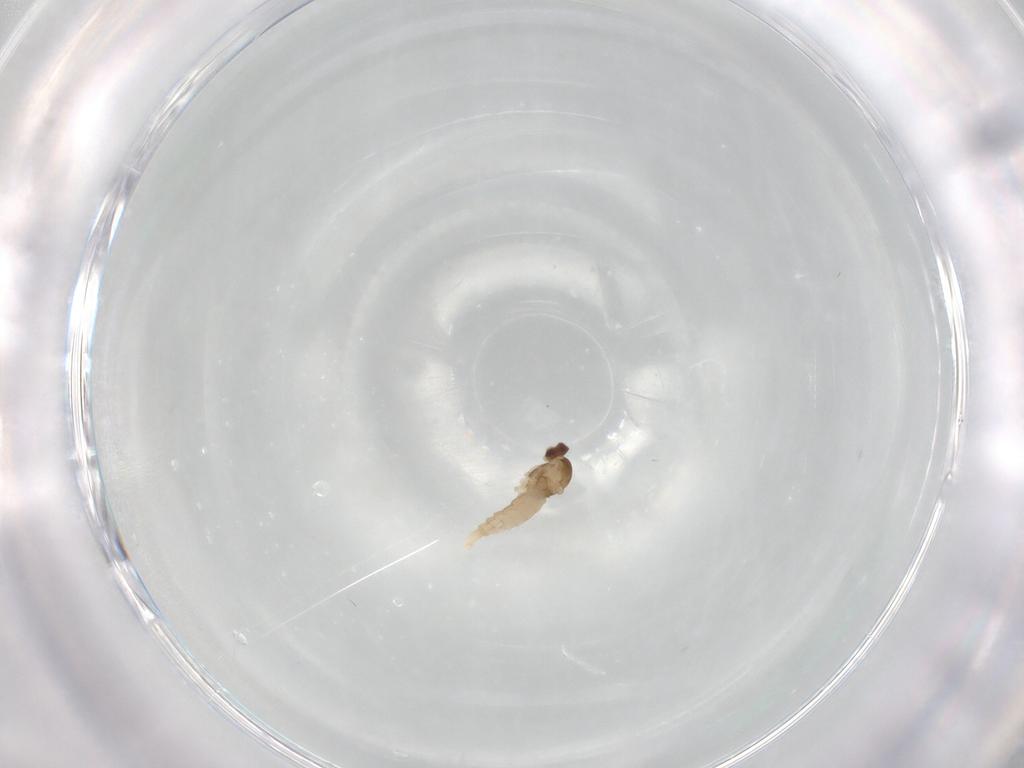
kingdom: Animalia
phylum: Arthropoda
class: Insecta
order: Diptera
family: Cecidomyiidae
